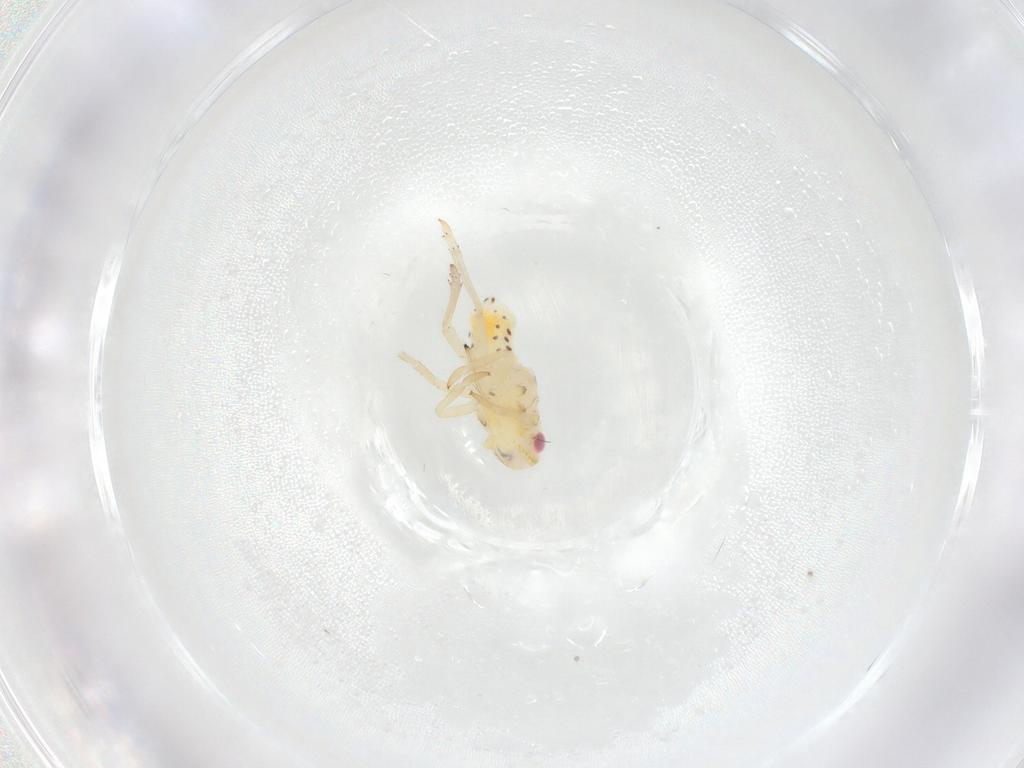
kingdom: Animalia
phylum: Arthropoda
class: Insecta
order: Hemiptera
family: Tropiduchidae
